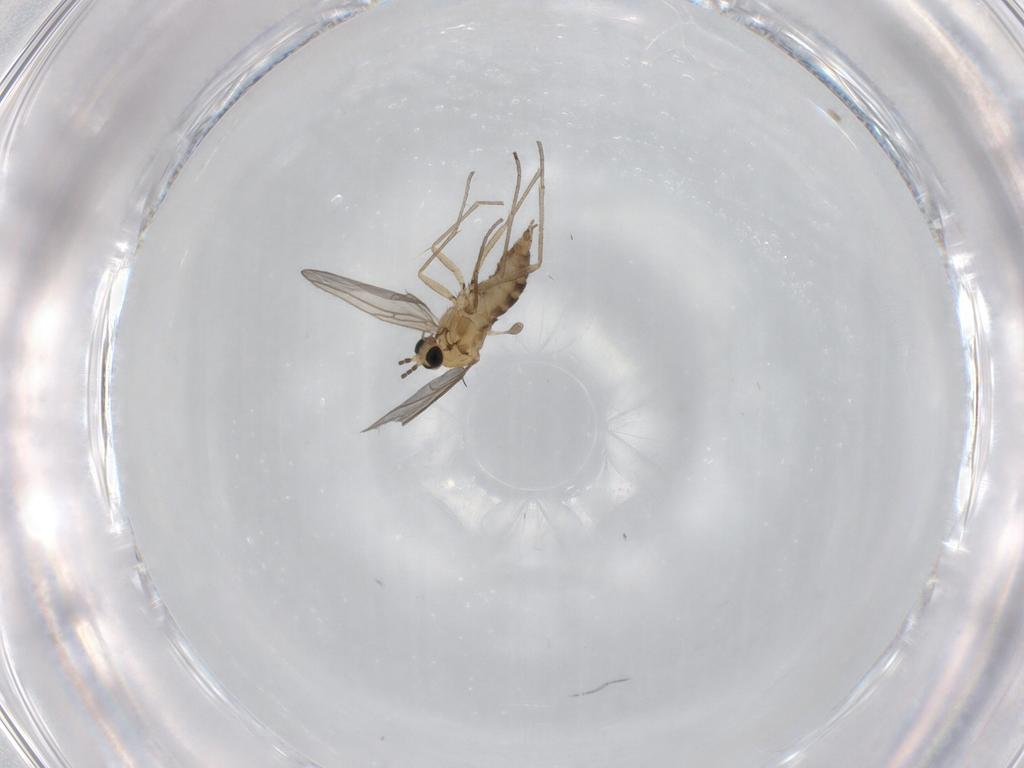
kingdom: Animalia
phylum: Arthropoda
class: Insecta
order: Diptera
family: Sciaridae
